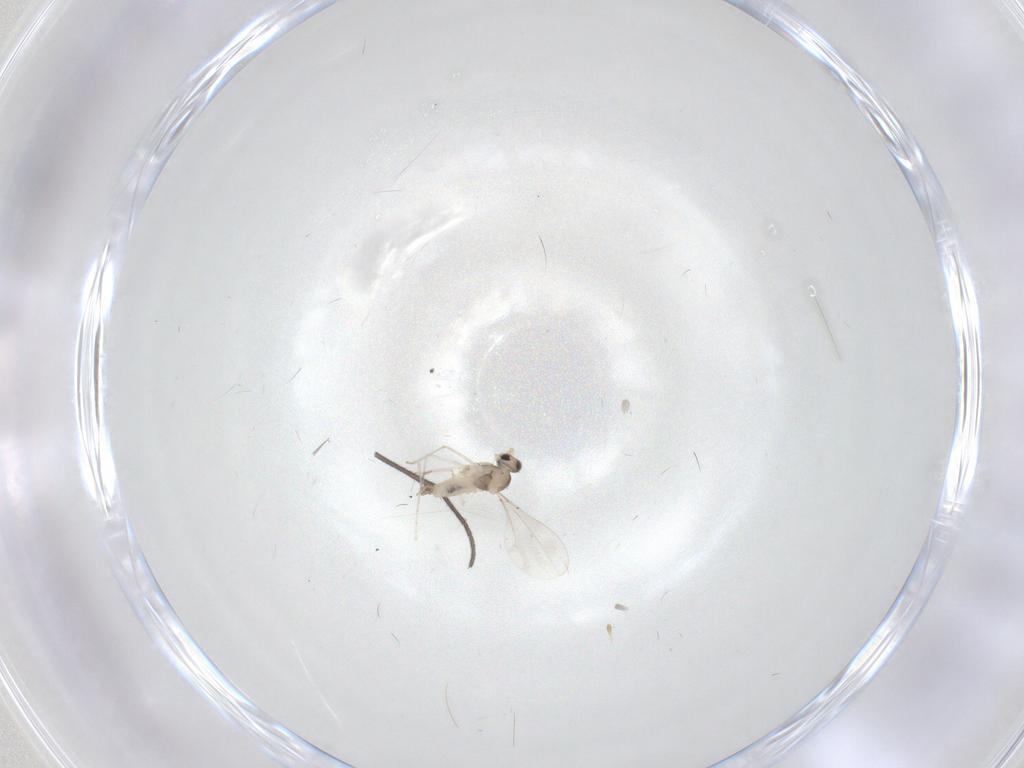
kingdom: Animalia
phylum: Arthropoda
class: Insecta
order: Diptera
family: Cecidomyiidae
